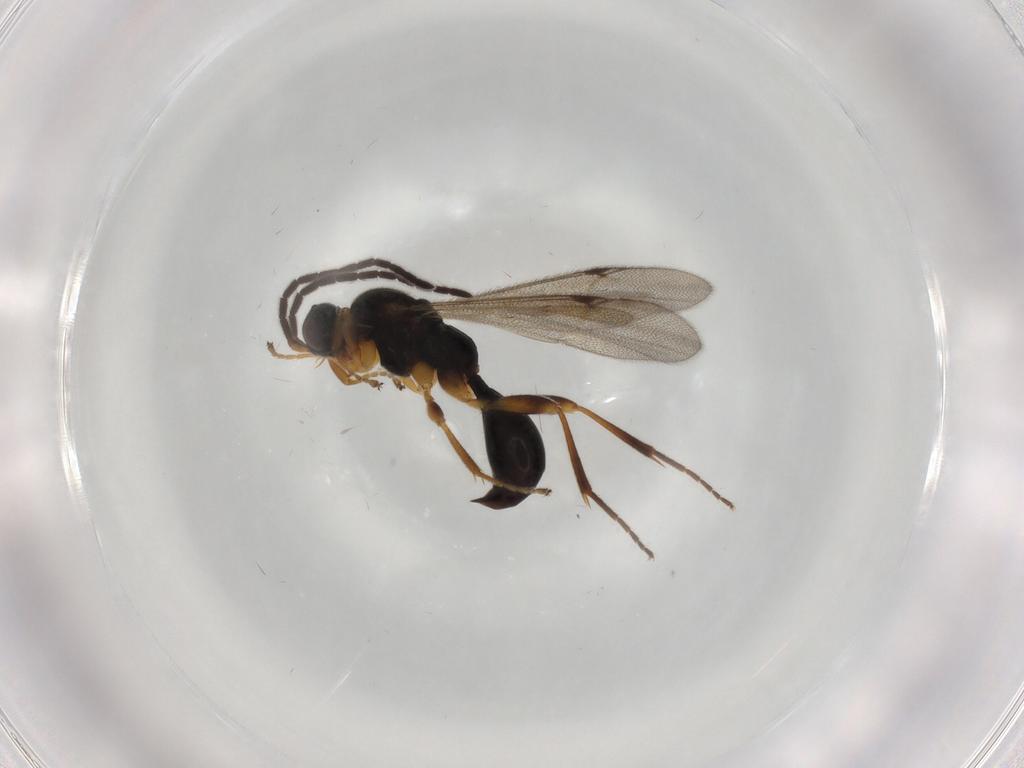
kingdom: Animalia
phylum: Arthropoda
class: Insecta
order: Hymenoptera
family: Proctotrupidae
